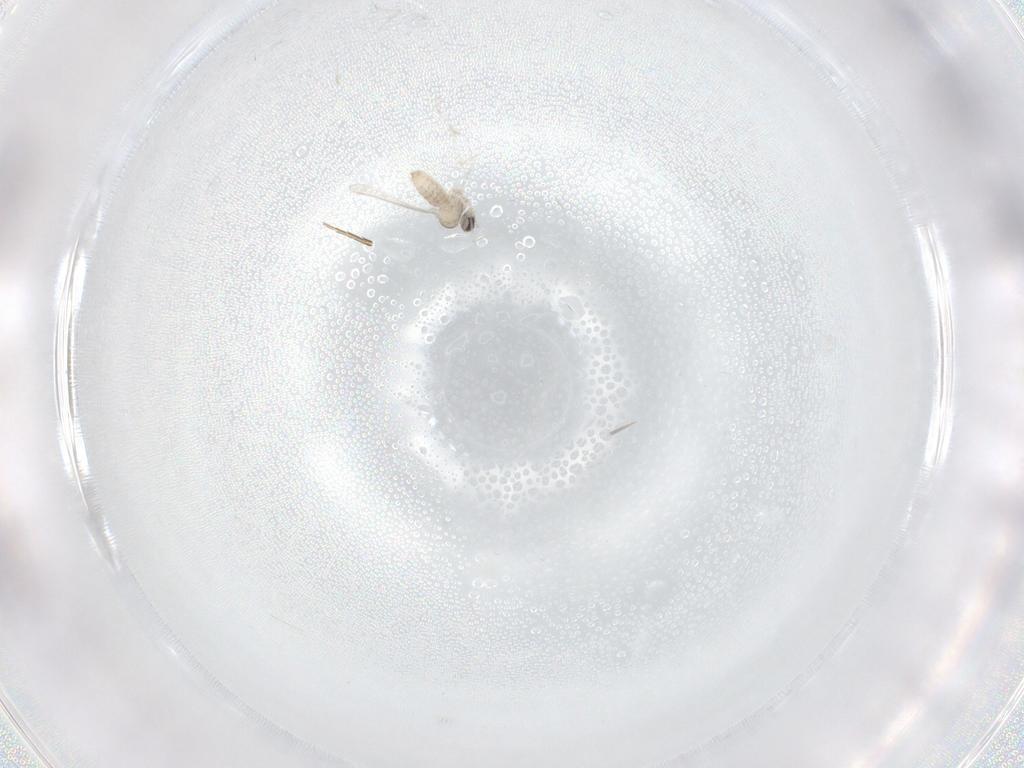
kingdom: Animalia
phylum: Arthropoda
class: Insecta
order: Diptera
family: Cecidomyiidae
